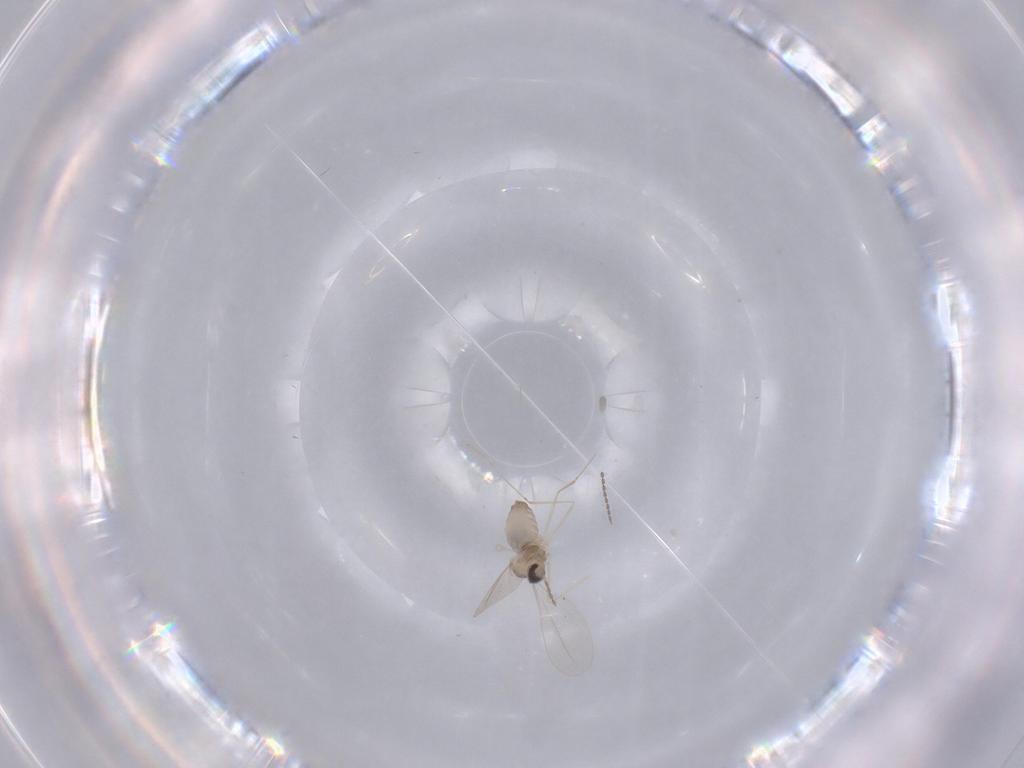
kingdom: Animalia
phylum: Arthropoda
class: Insecta
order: Diptera
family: Cecidomyiidae
